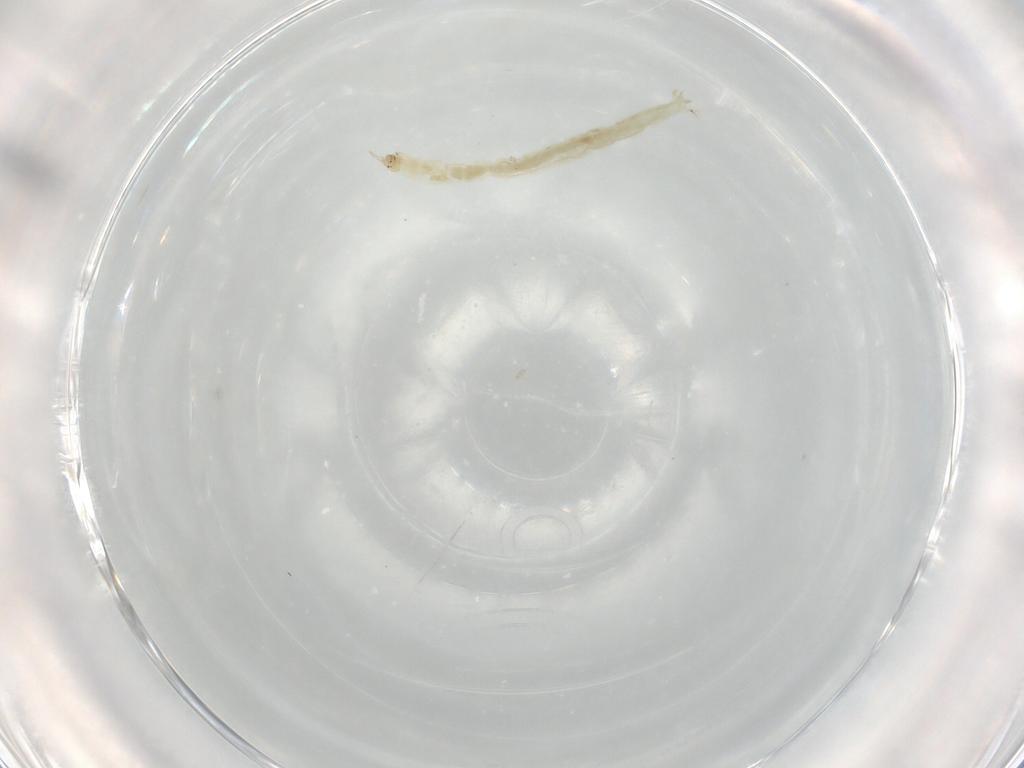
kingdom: Animalia
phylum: Arthropoda
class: Insecta
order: Diptera
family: Chironomidae
